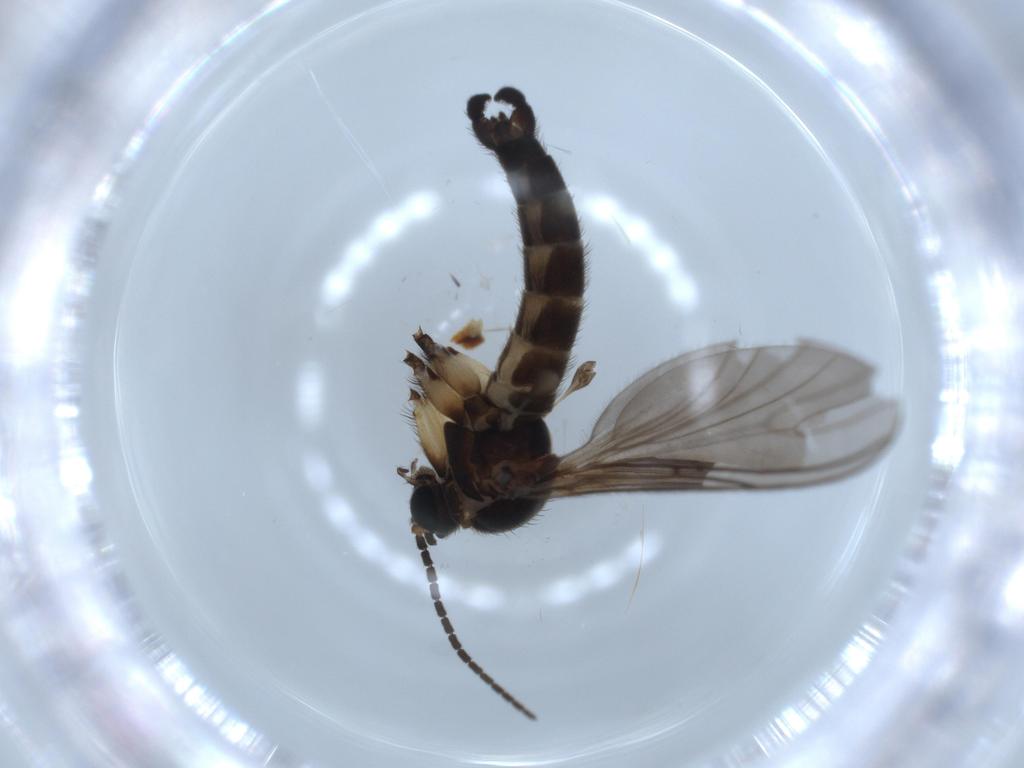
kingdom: Animalia
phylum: Arthropoda
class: Insecta
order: Diptera
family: Sciaridae
